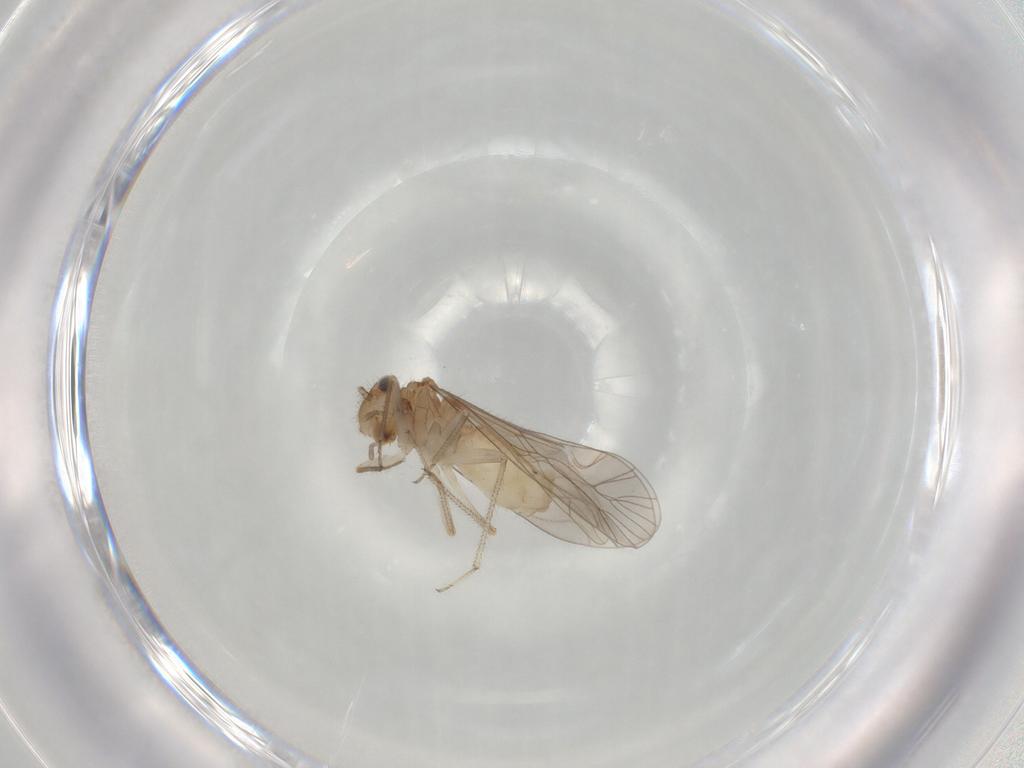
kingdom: Animalia
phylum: Arthropoda
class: Insecta
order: Psocodea
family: Caeciliusidae
